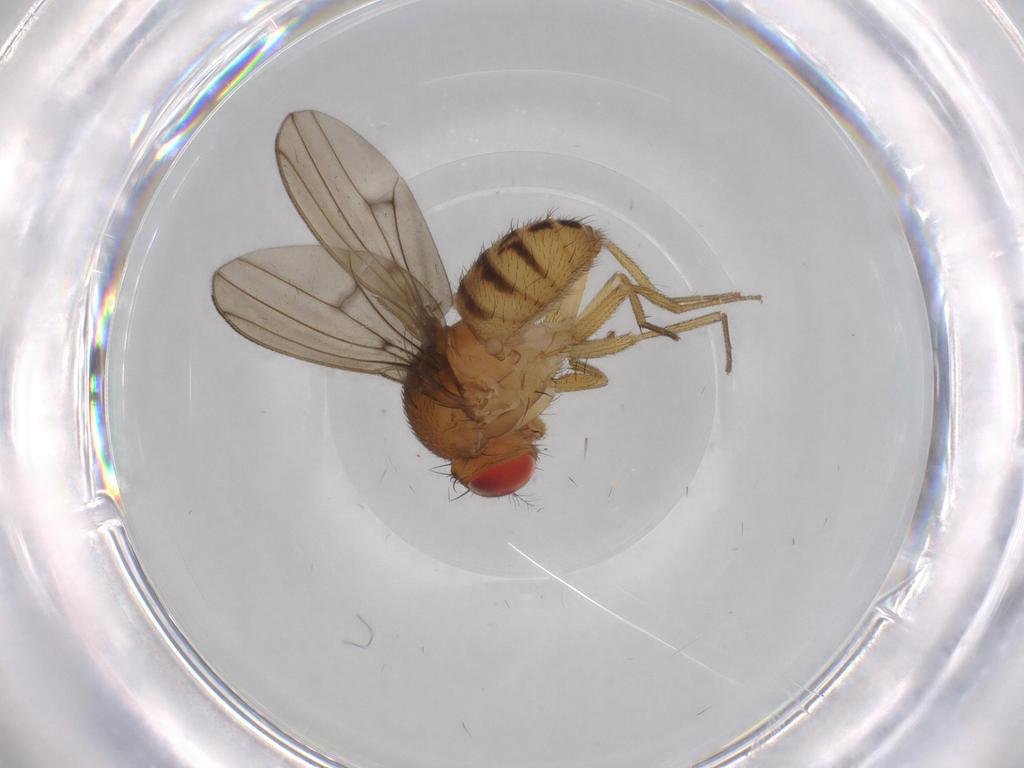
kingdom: Animalia
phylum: Arthropoda
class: Insecta
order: Diptera
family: Drosophilidae
